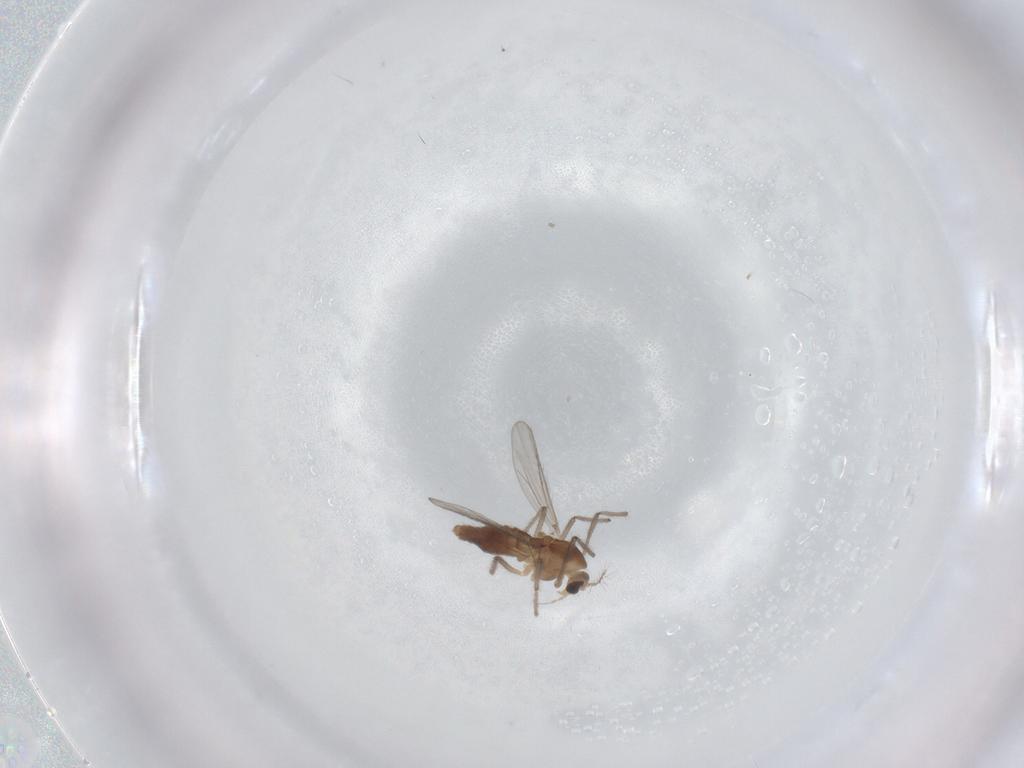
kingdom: Animalia
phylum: Arthropoda
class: Insecta
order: Diptera
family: Chironomidae
